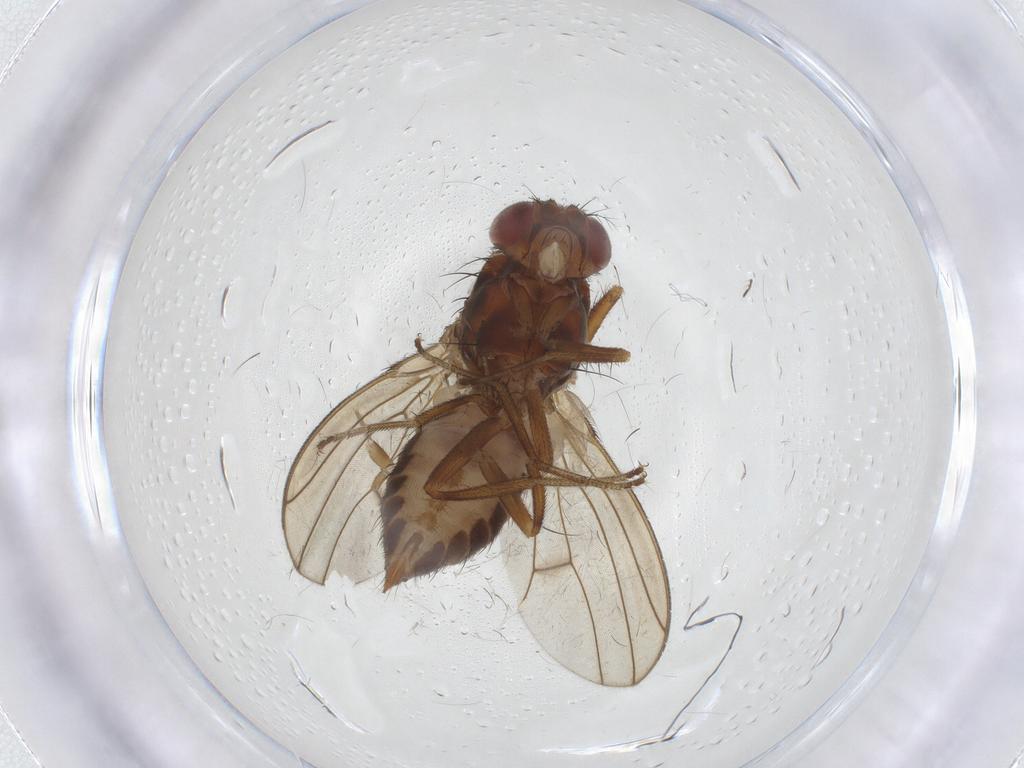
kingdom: Animalia
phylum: Arthropoda
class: Insecta
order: Diptera
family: Drosophilidae
